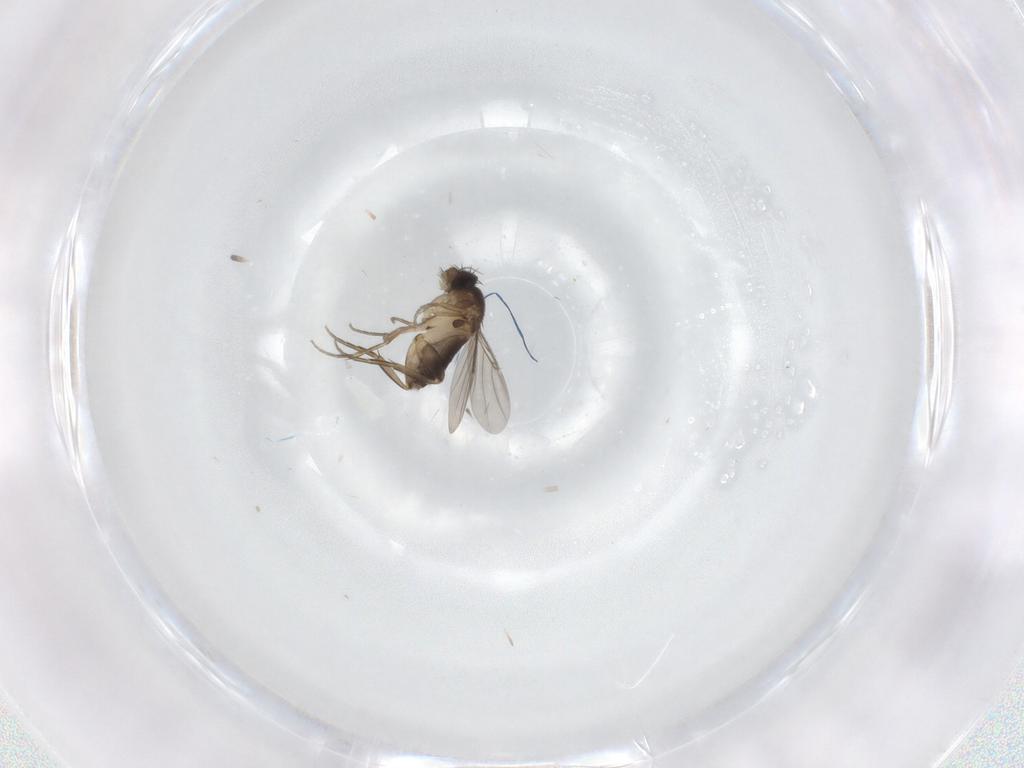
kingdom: Animalia
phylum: Arthropoda
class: Insecta
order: Diptera
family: Phoridae
